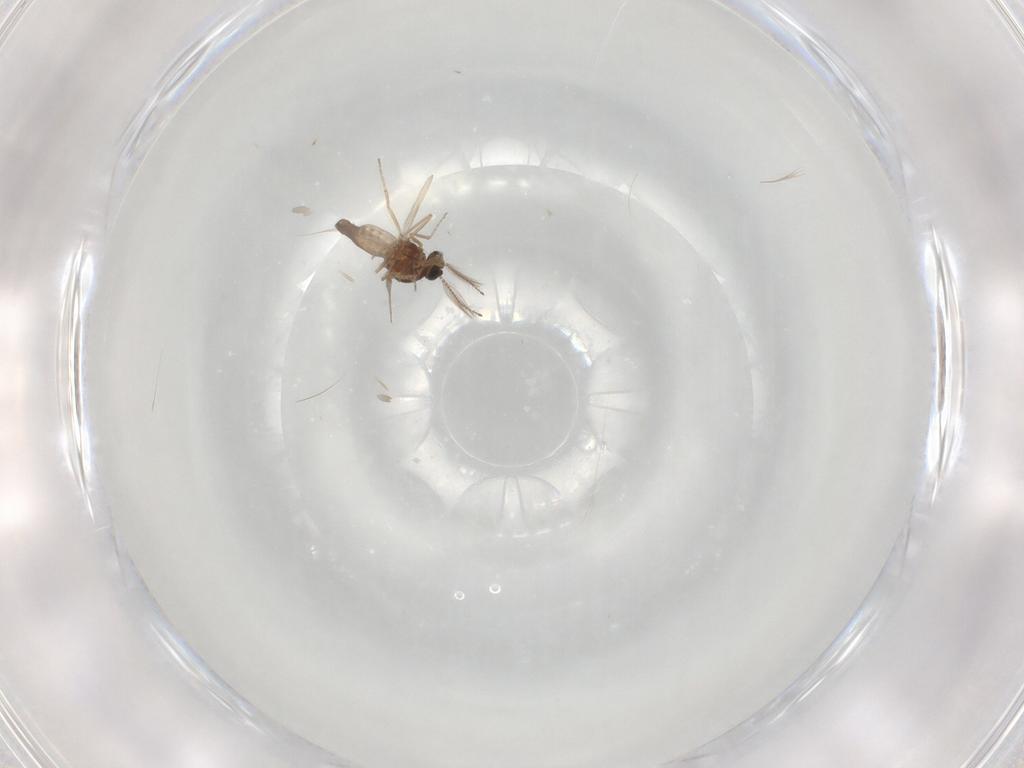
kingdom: Animalia
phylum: Arthropoda
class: Insecta
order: Diptera
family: Ceratopogonidae
